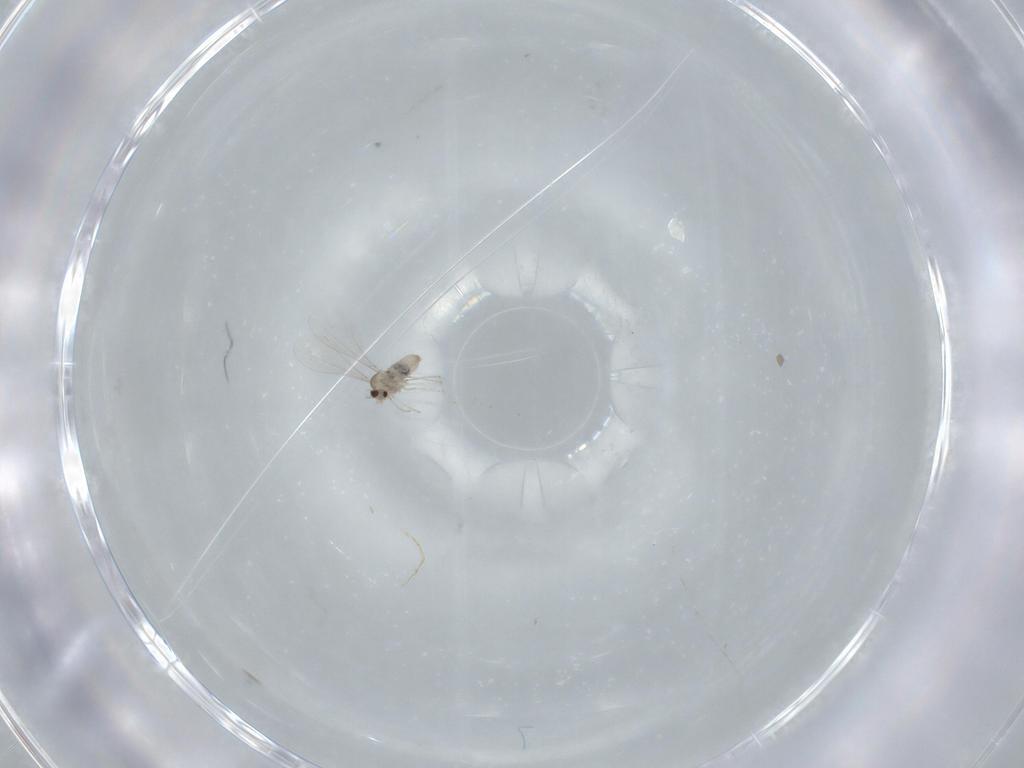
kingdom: Animalia
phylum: Arthropoda
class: Insecta
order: Diptera
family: Cecidomyiidae
